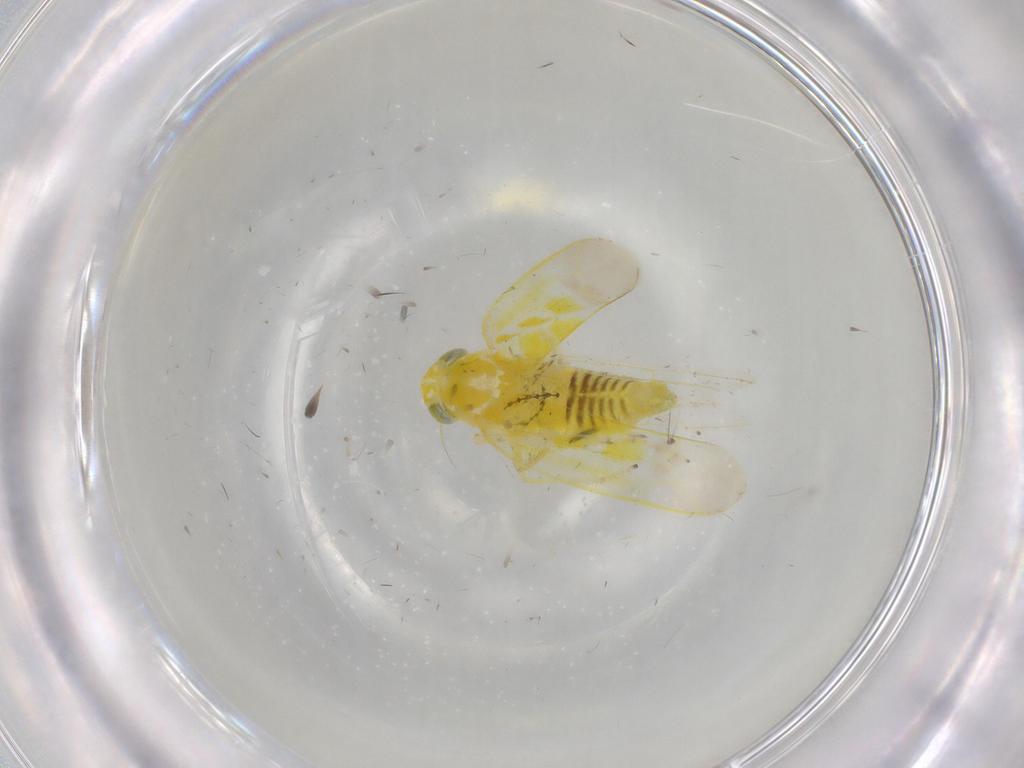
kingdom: Animalia
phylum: Arthropoda
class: Insecta
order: Hemiptera
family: Cicadellidae
